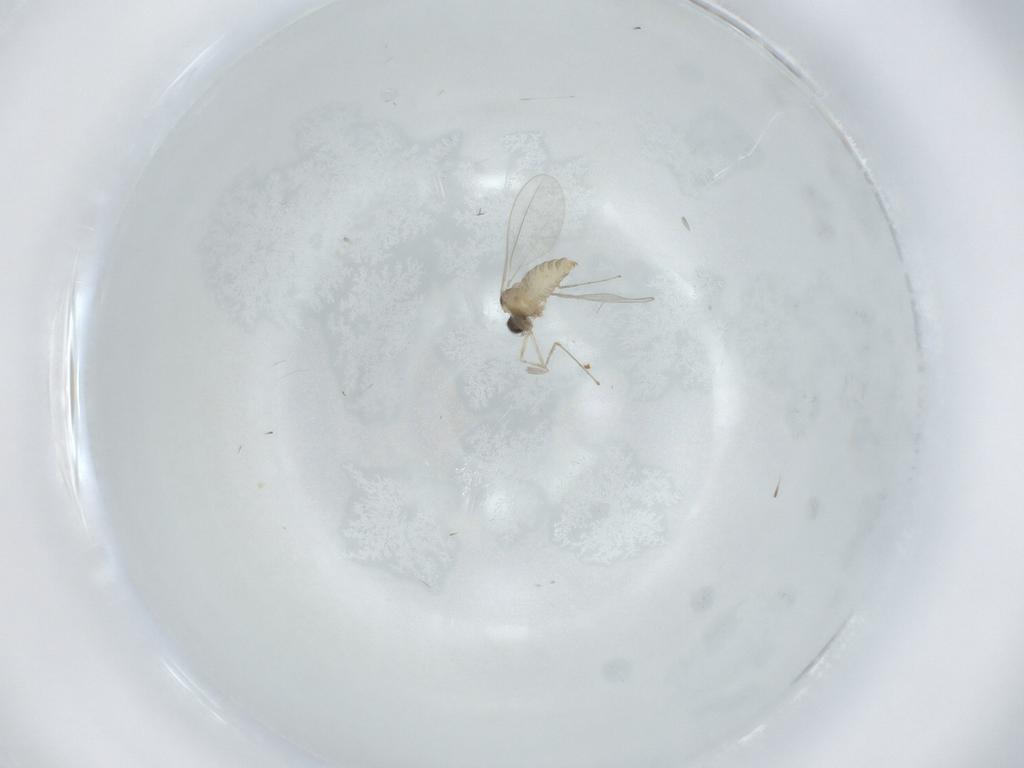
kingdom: Animalia
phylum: Arthropoda
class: Insecta
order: Diptera
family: Cecidomyiidae
